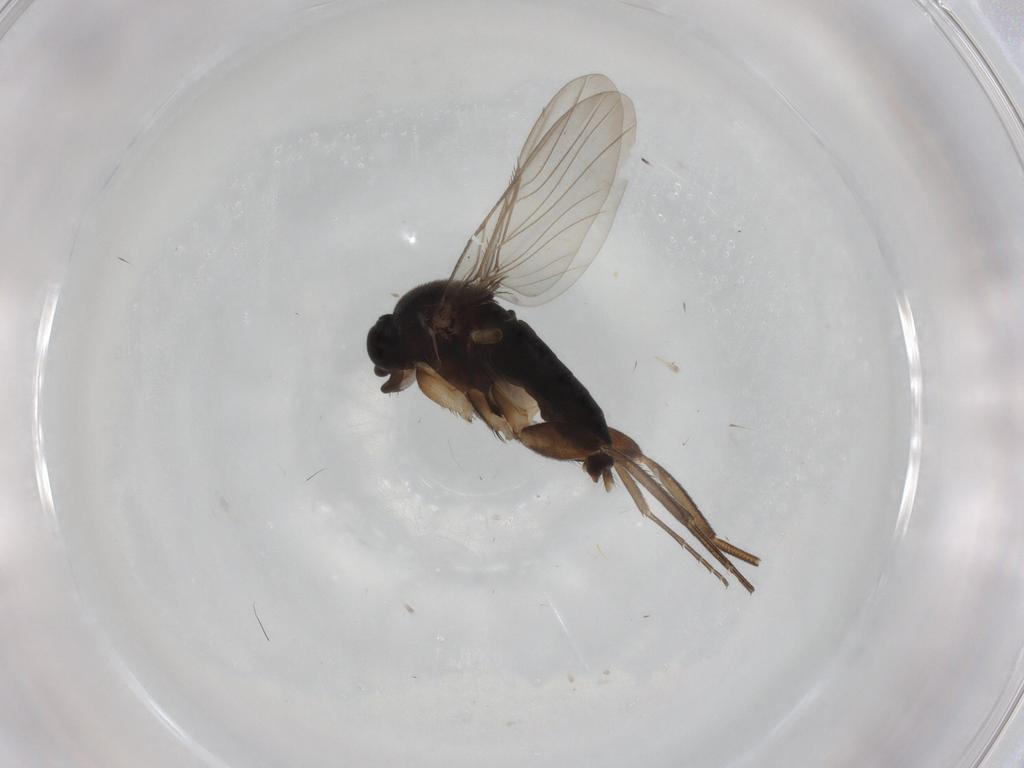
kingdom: Animalia
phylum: Arthropoda
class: Insecta
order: Diptera
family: Phoridae
